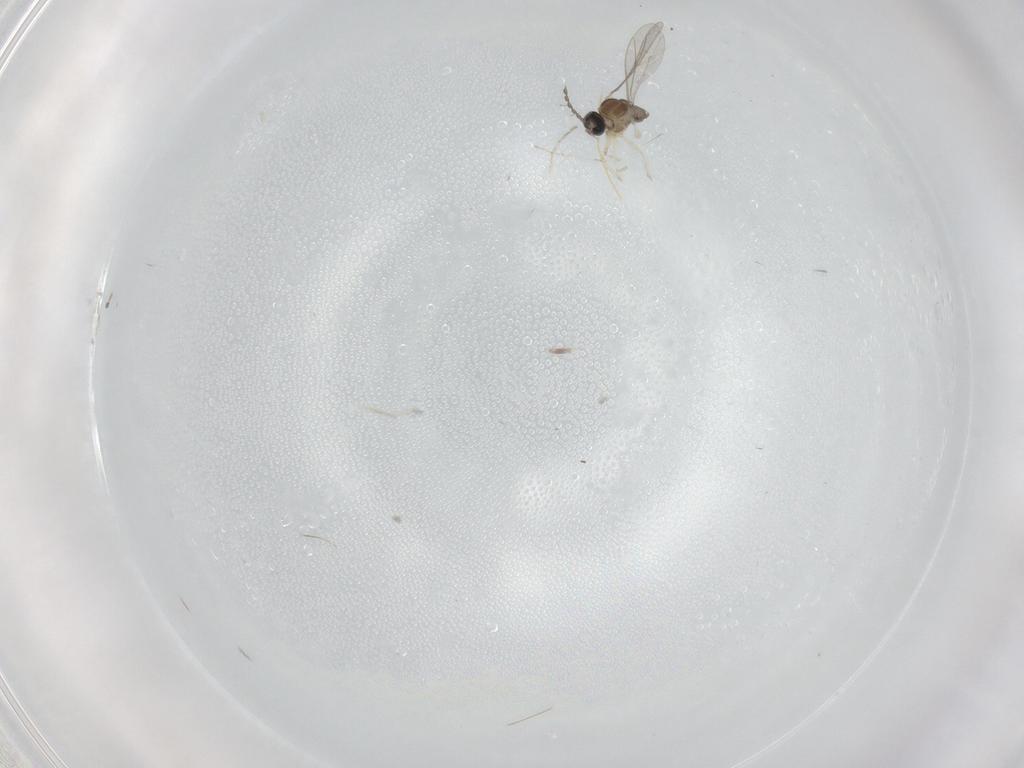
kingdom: Animalia
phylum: Arthropoda
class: Insecta
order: Diptera
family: Cecidomyiidae
